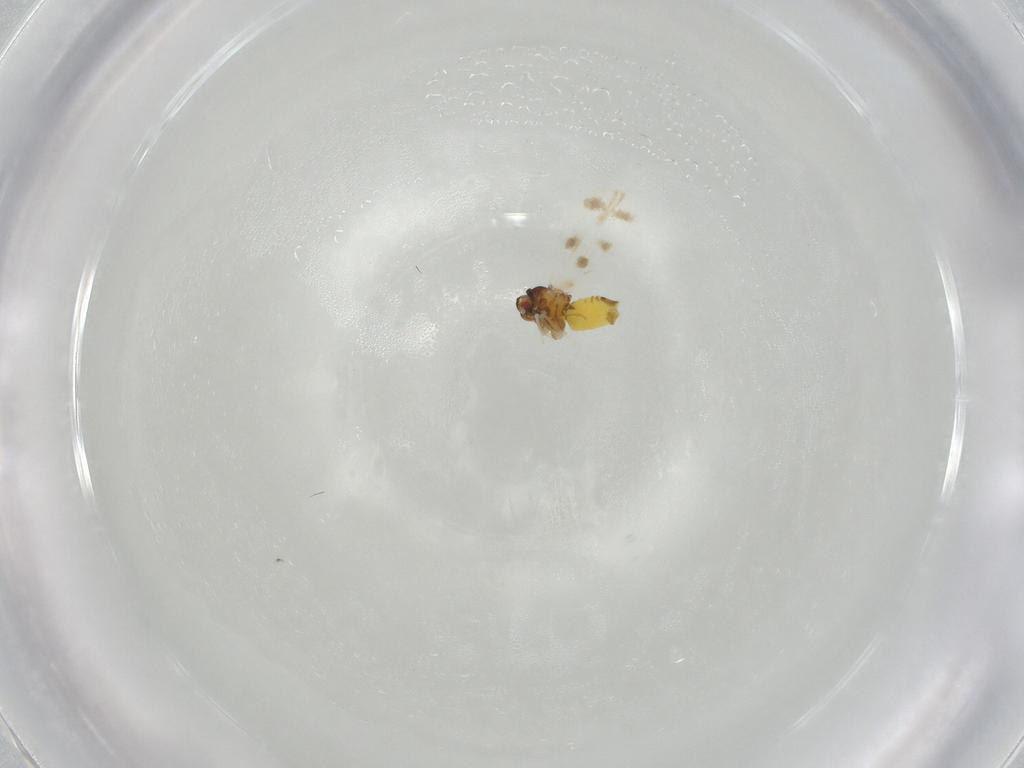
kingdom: Animalia
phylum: Arthropoda
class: Insecta
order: Hemiptera
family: Aleyrodidae
